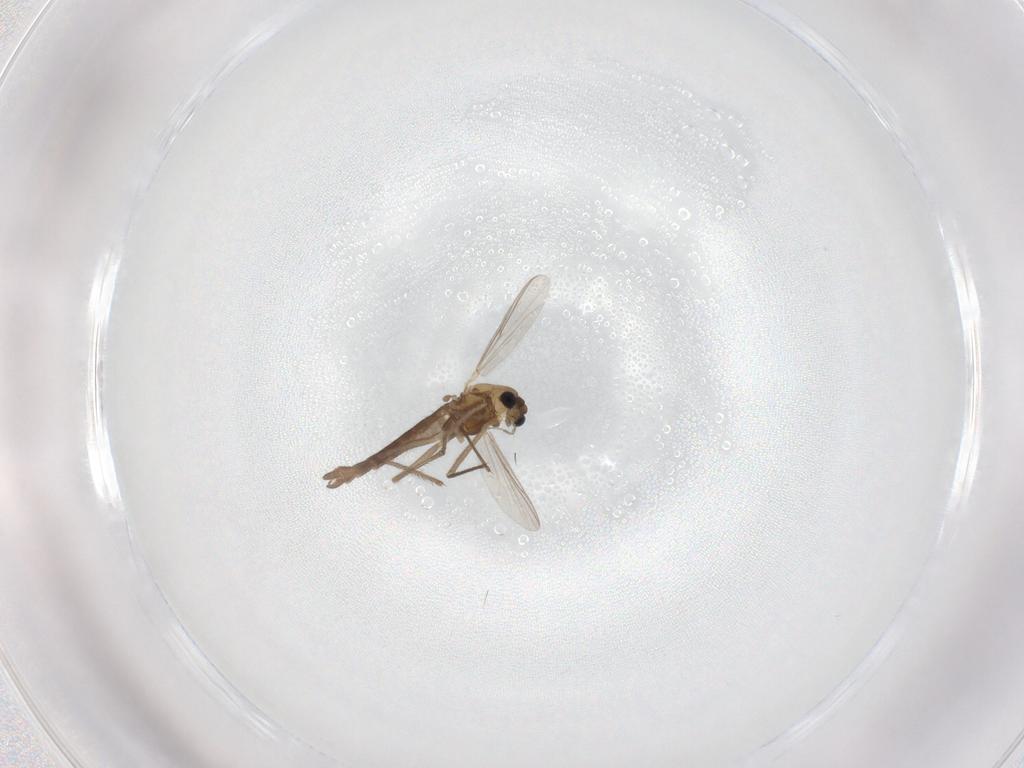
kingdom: Animalia
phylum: Arthropoda
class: Insecta
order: Diptera
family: Chironomidae
